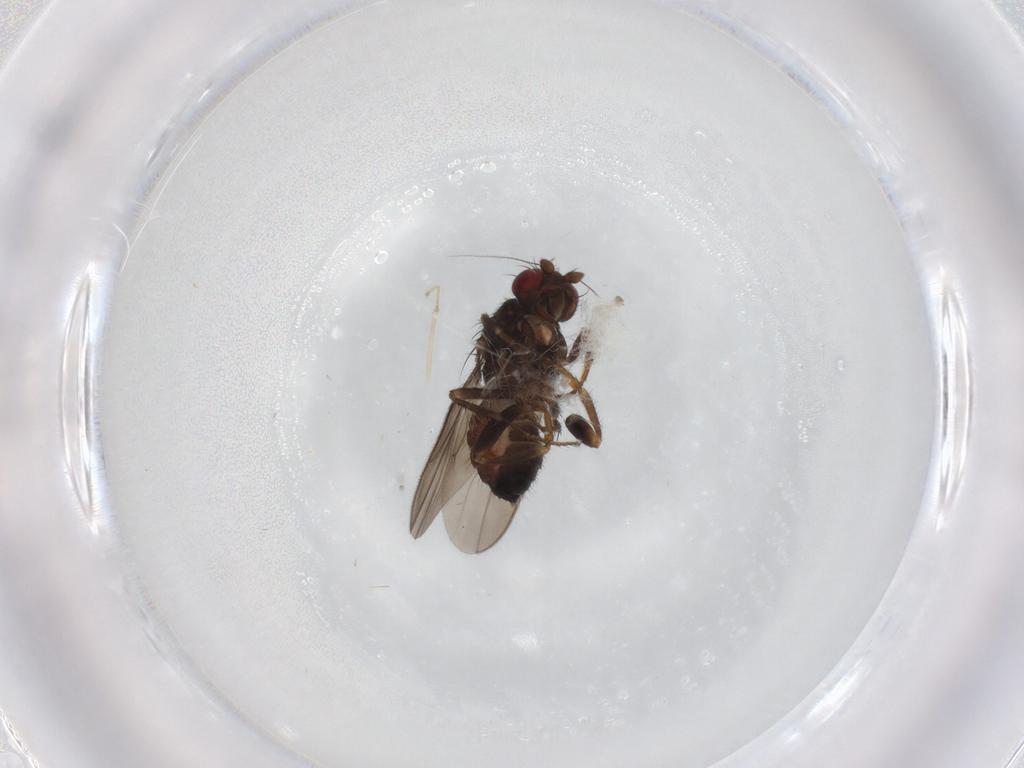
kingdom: Animalia
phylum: Arthropoda
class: Insecta
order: Diptera
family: Sphaeroceridae
